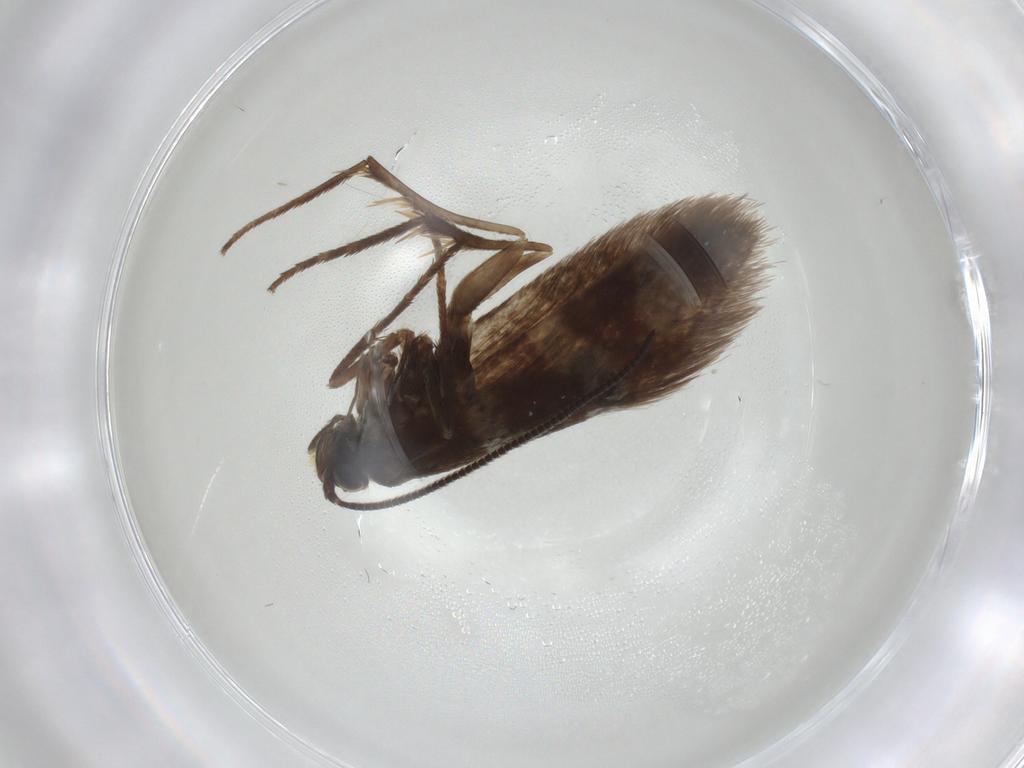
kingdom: Animalia
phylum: Arthropoda
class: Insecta
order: Lepidoptera
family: Micropterigidae
